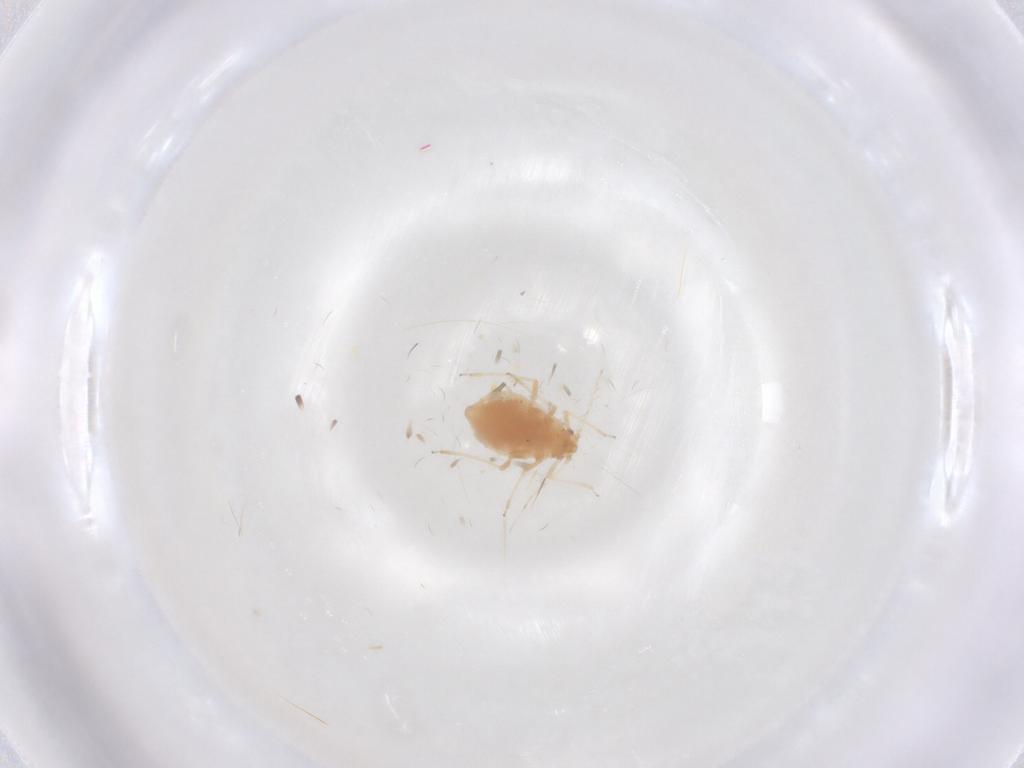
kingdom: Animalia
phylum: Arthropoda
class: Insecta
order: Hemiptera
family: Aphididae
